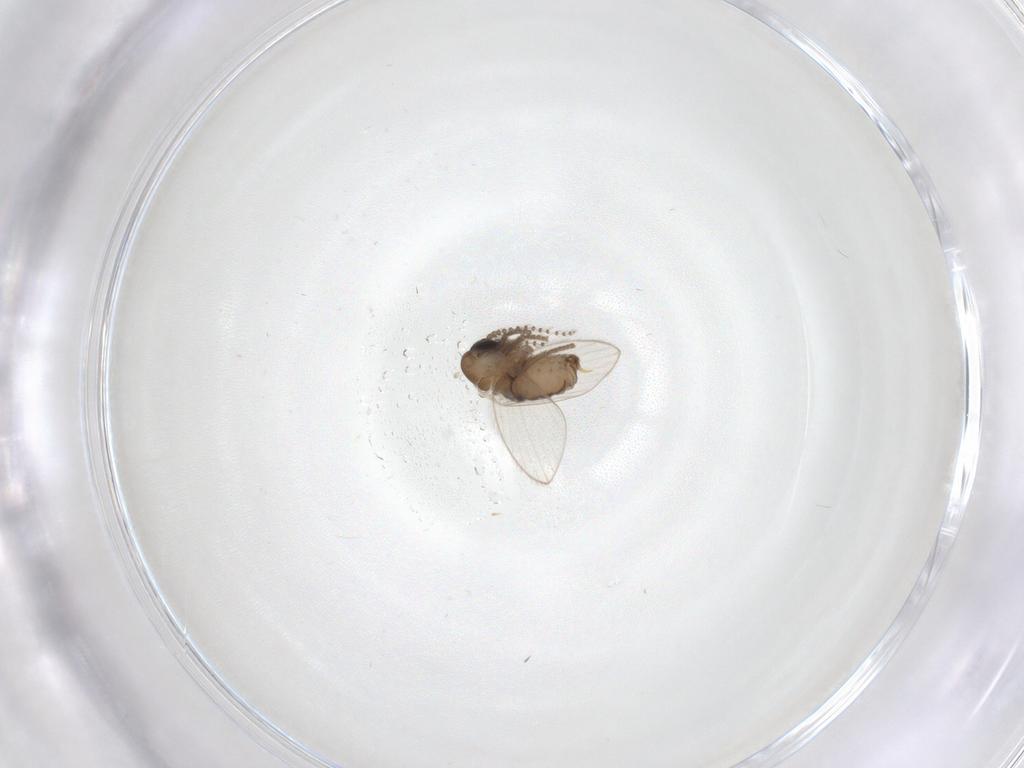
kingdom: Animalia
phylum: Arthropoda
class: Insecta
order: Diptera
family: Psychodidae
